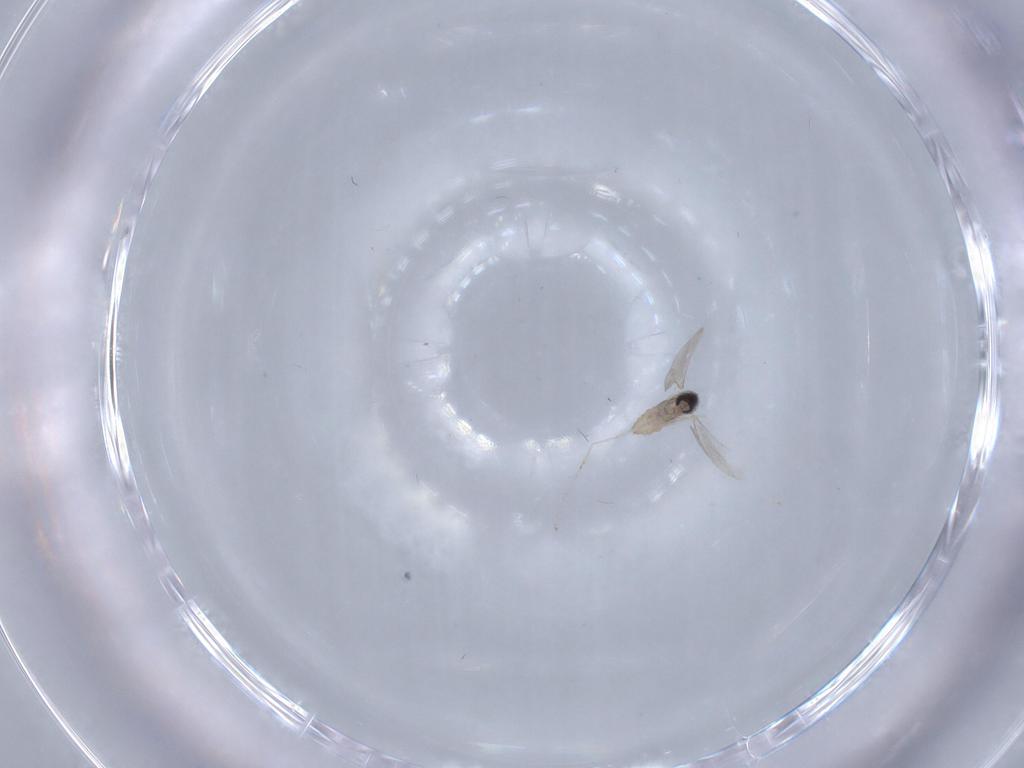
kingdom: Animalia
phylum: Arthropoda
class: Insecta
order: Diptera
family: Cecidomyiidae
